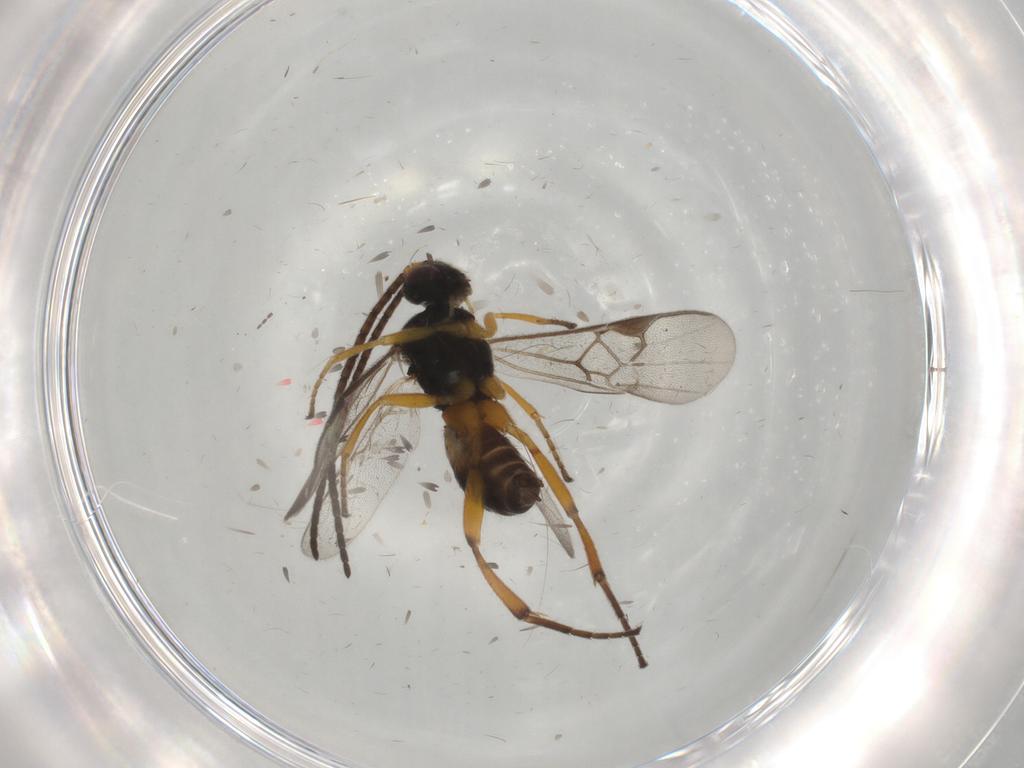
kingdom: Animalia
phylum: Arthropoda
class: Insecta
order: Hymenoptera
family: Braconidae
